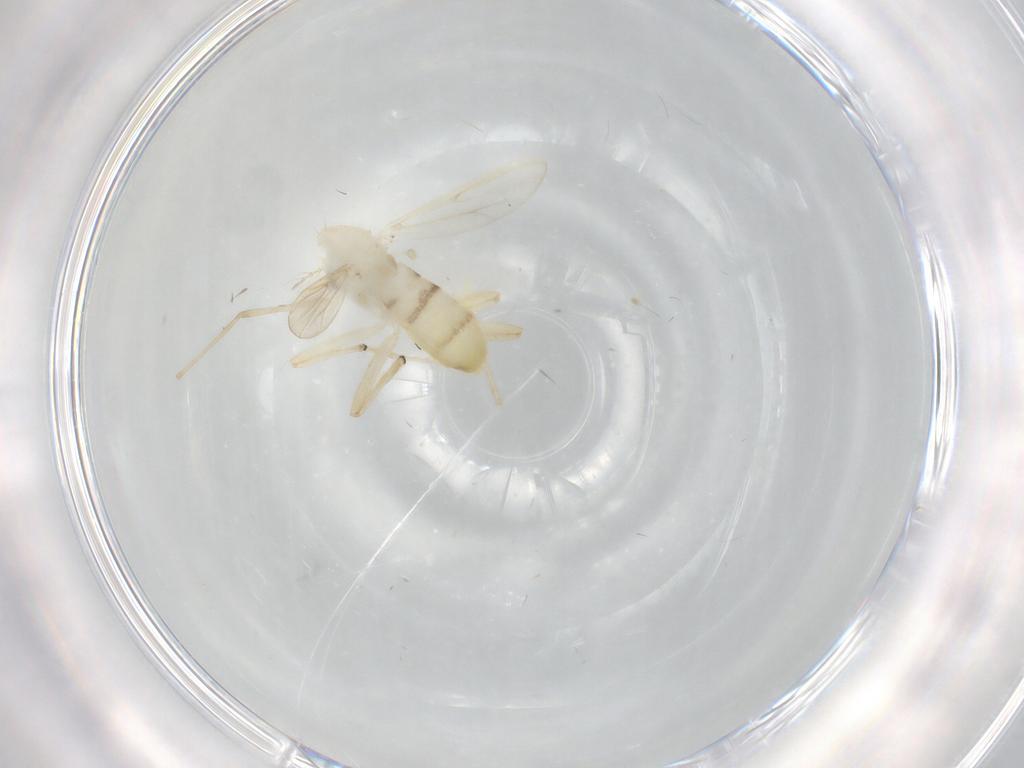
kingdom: Animalia
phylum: Arthropoda
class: Insecta
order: Diptera
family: Chironomidae
